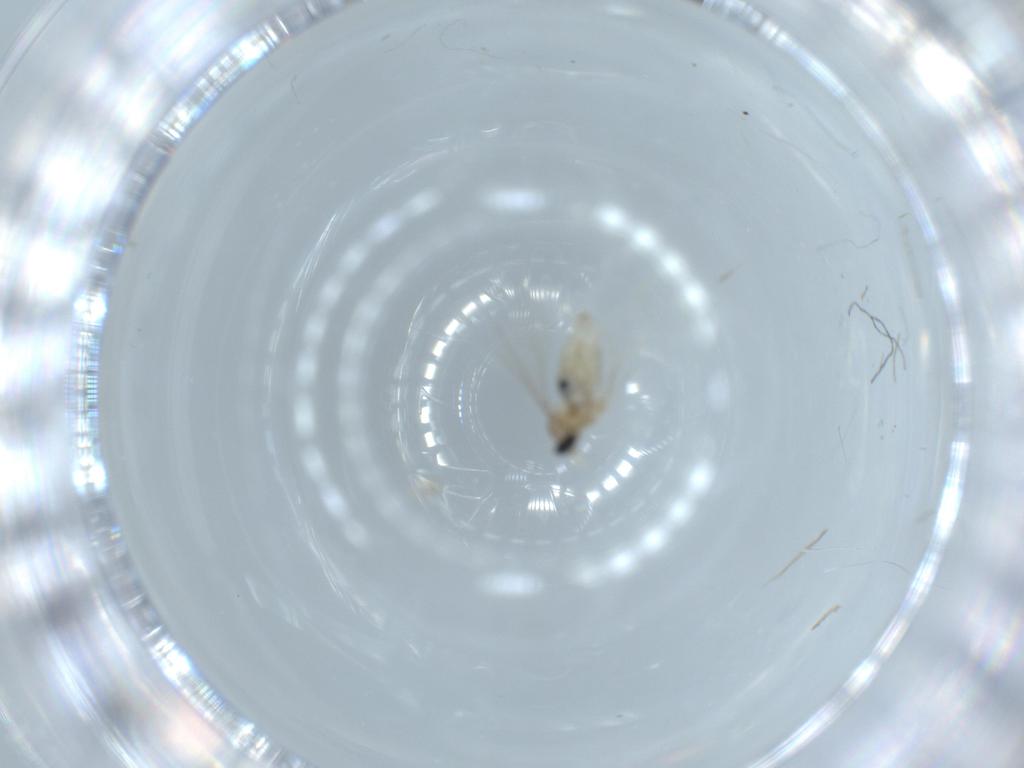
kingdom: Animalia
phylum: Arthropoda
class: Insecta
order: Diptera
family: Cecidomyiidae
